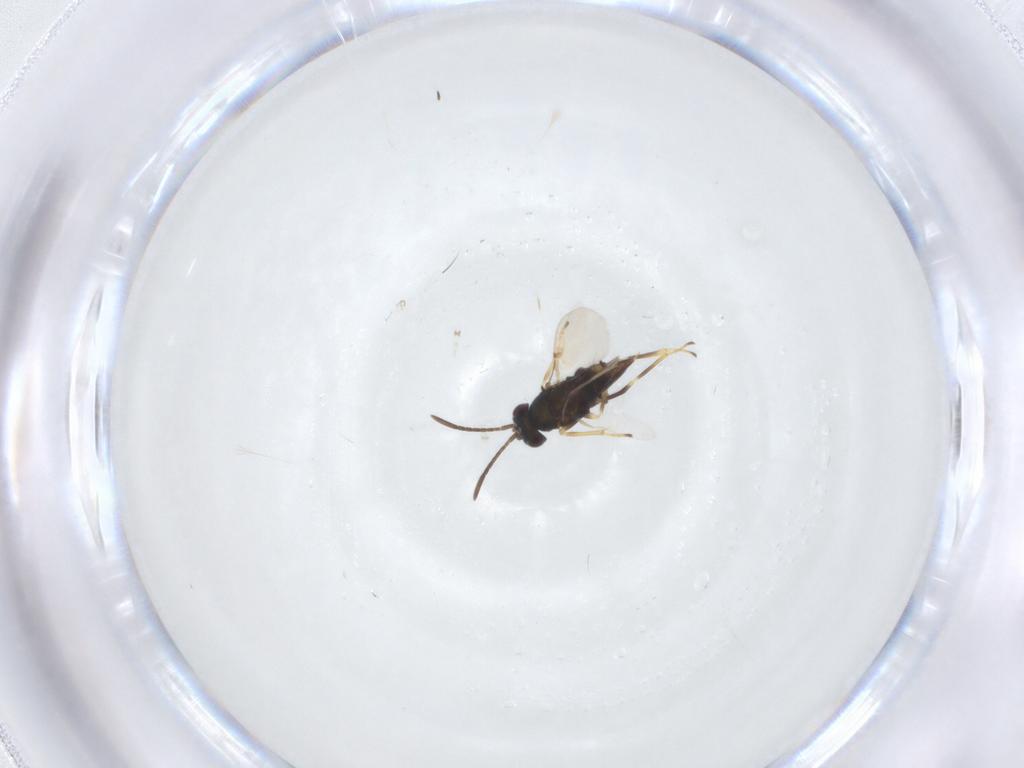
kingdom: Animalia
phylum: Arthropoda
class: Insecta
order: Hymenoptera
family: Encyrtidae
